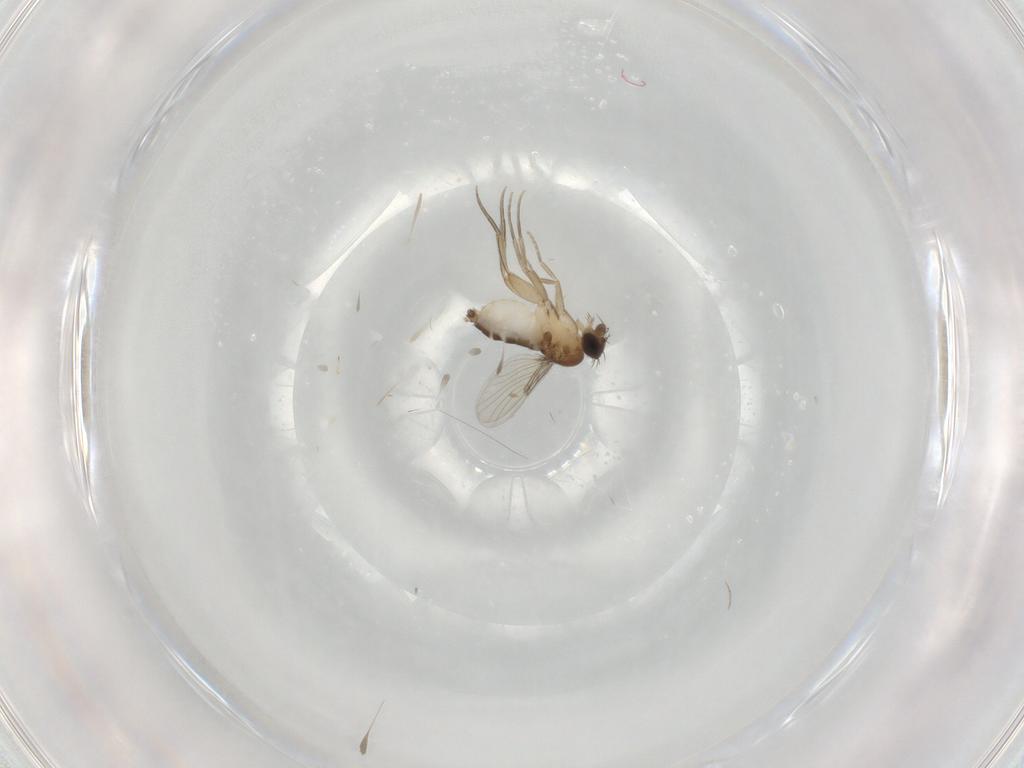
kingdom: Animalia
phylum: Arthropoda
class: Insecta
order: Diptera
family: Phoridae
